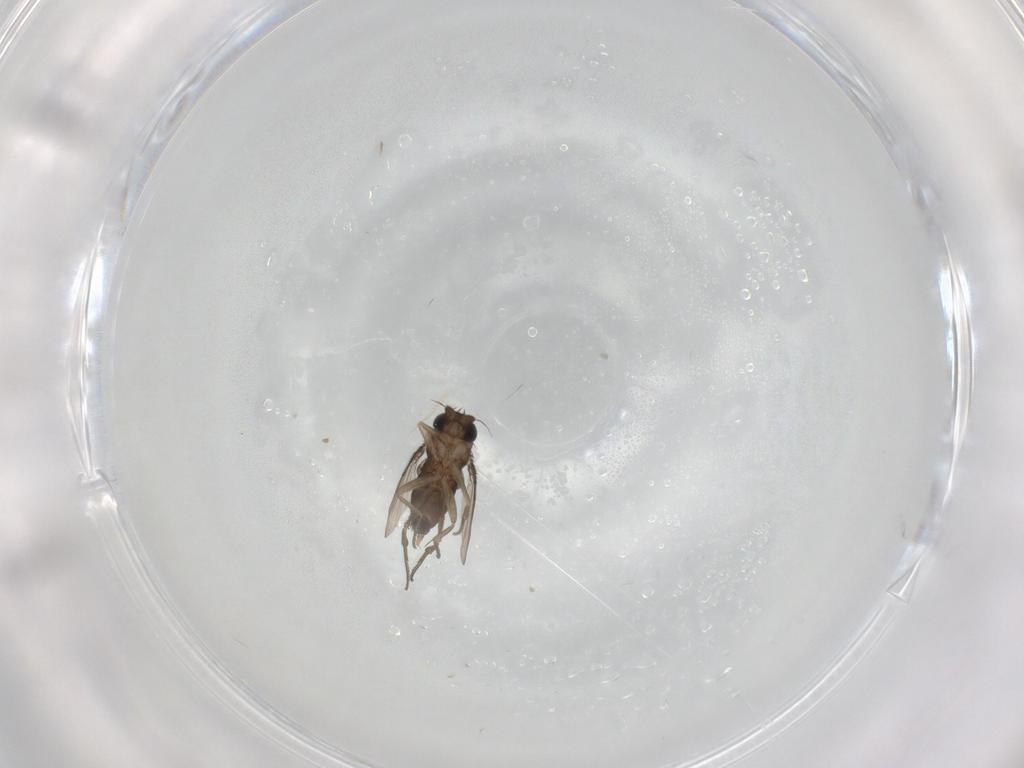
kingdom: Animalia
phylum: Arthropoda
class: Insecta
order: Diptera
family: Phoridae
